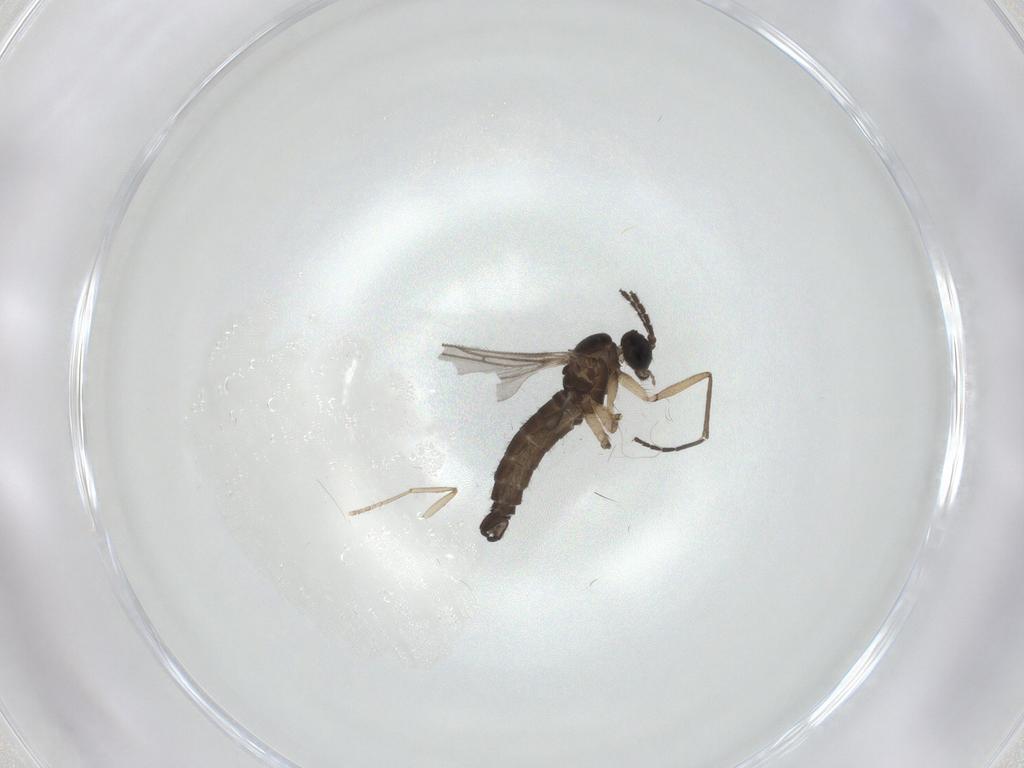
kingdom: Animalia
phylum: Arthropoda
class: Insecta
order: Diptera
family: Sciaridae
